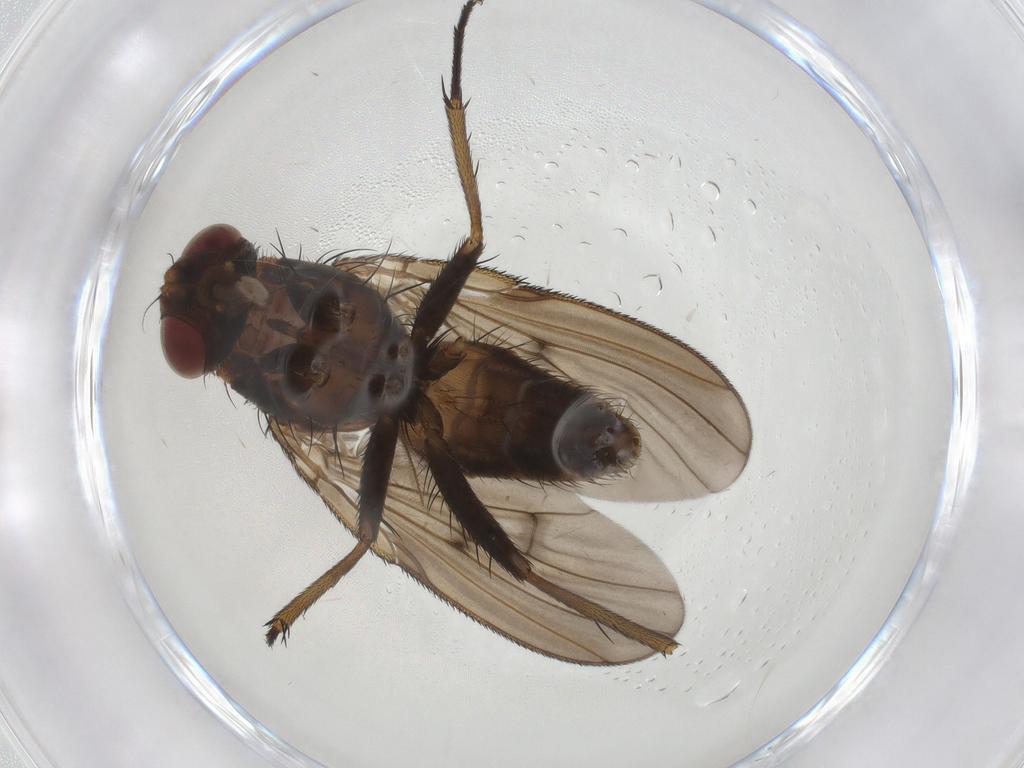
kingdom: Animalia
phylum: Arthropoda
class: Insecta
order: Diptera
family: Muscidae
